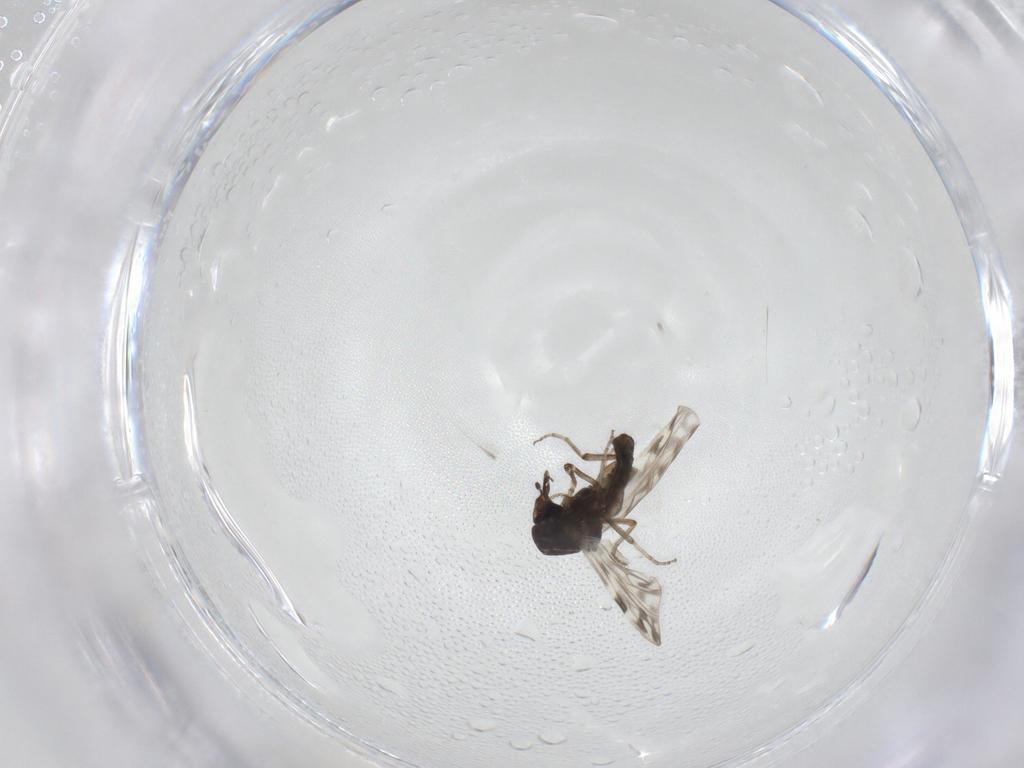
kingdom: Animalia
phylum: Arthropoda
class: Insecta
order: Diptera
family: Ceratopogonidae
